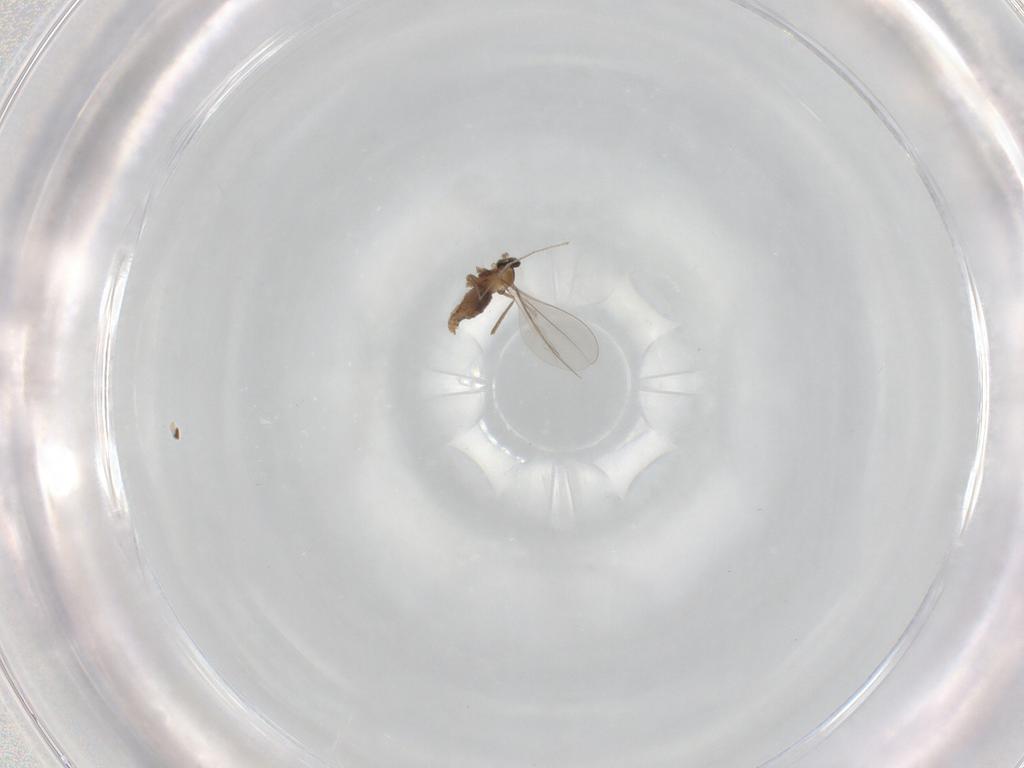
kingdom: Animalia
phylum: Arthropoda
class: Insecta
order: Diptera
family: Cecidomyiidae
